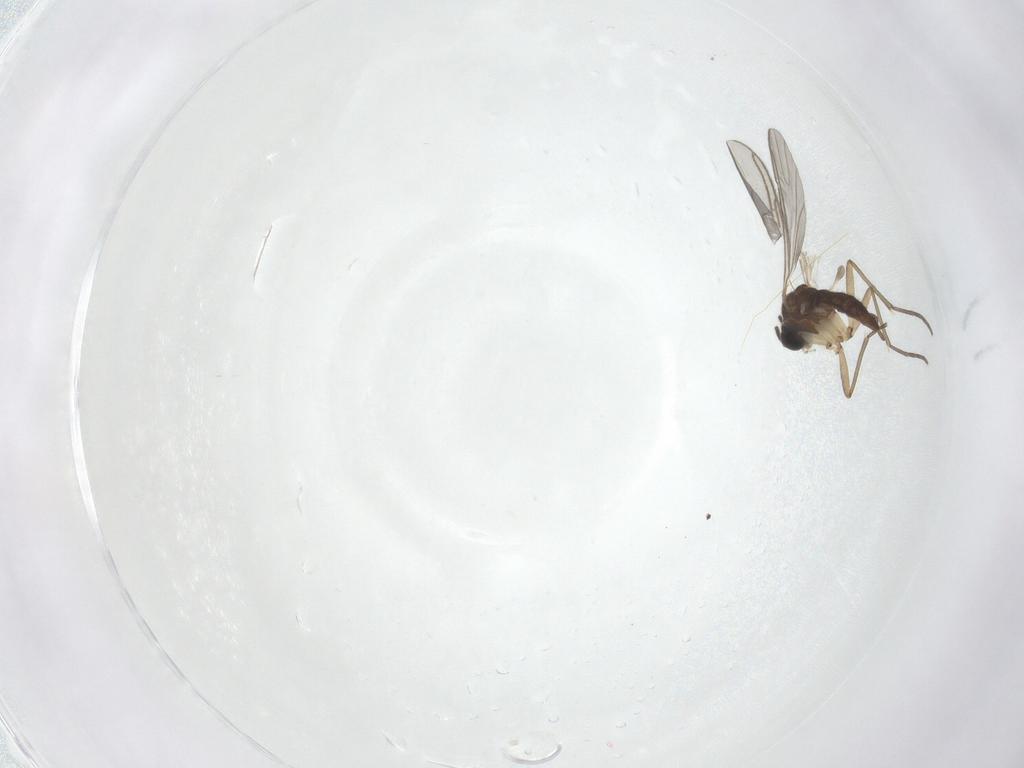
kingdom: Animalia
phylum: Arthropoda
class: Insecta
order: Diptera
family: Sciaridae
